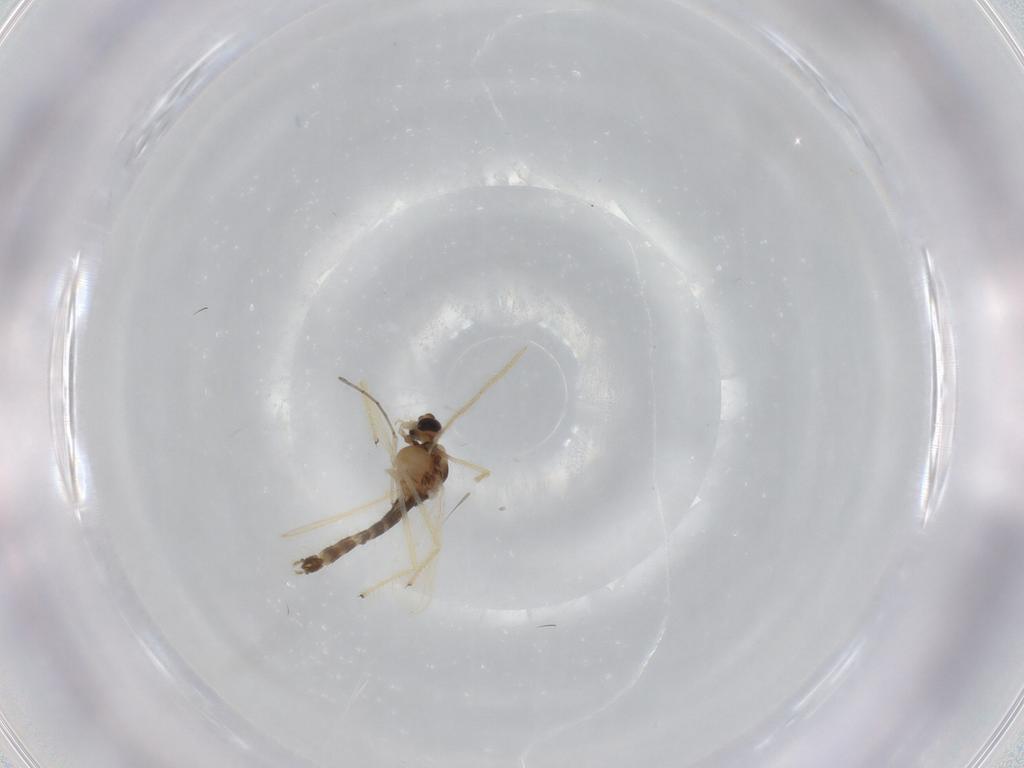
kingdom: Animalia
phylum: Arthropoda
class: Insecta
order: Diptera
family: Chironomidae
